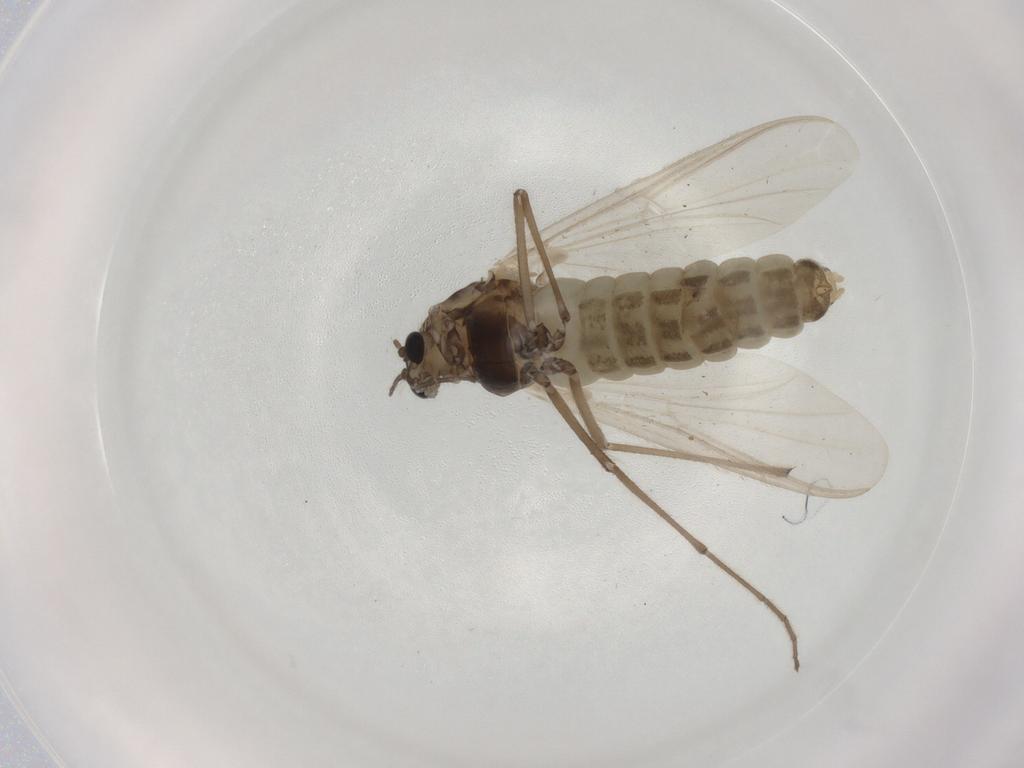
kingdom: Animalia
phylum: Arthropoda
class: Insecta
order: Diptera
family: Chironomidae
